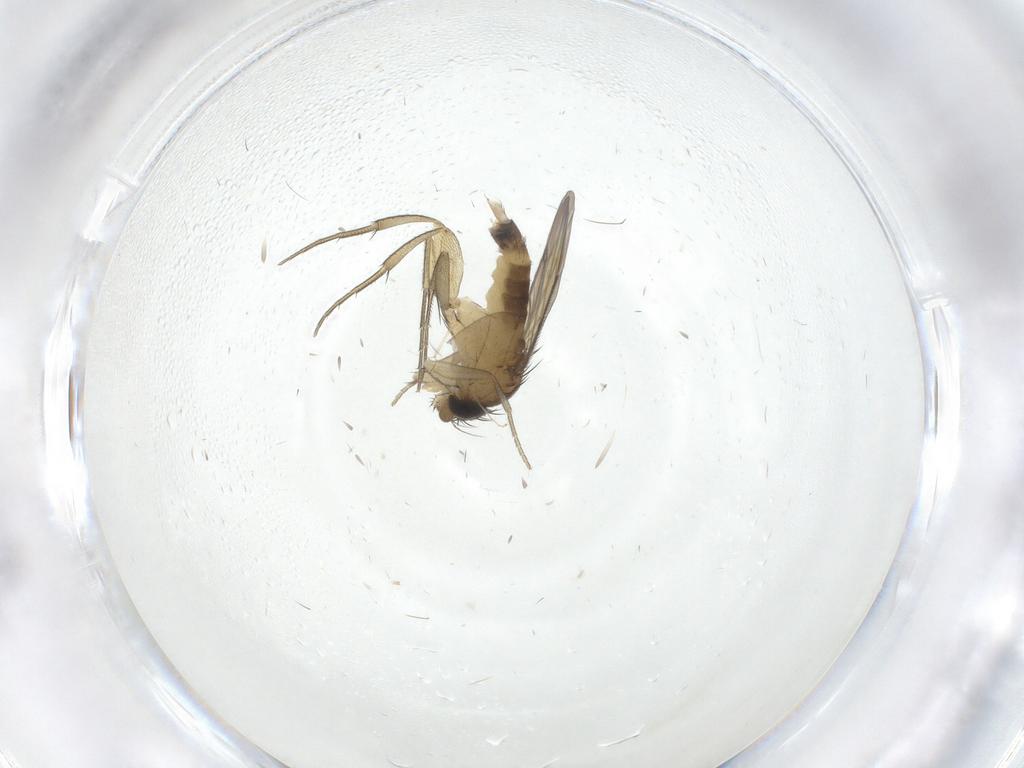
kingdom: Animalia
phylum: Arthropoda
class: Insecta
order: Diptera
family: Cecidomyiidae
